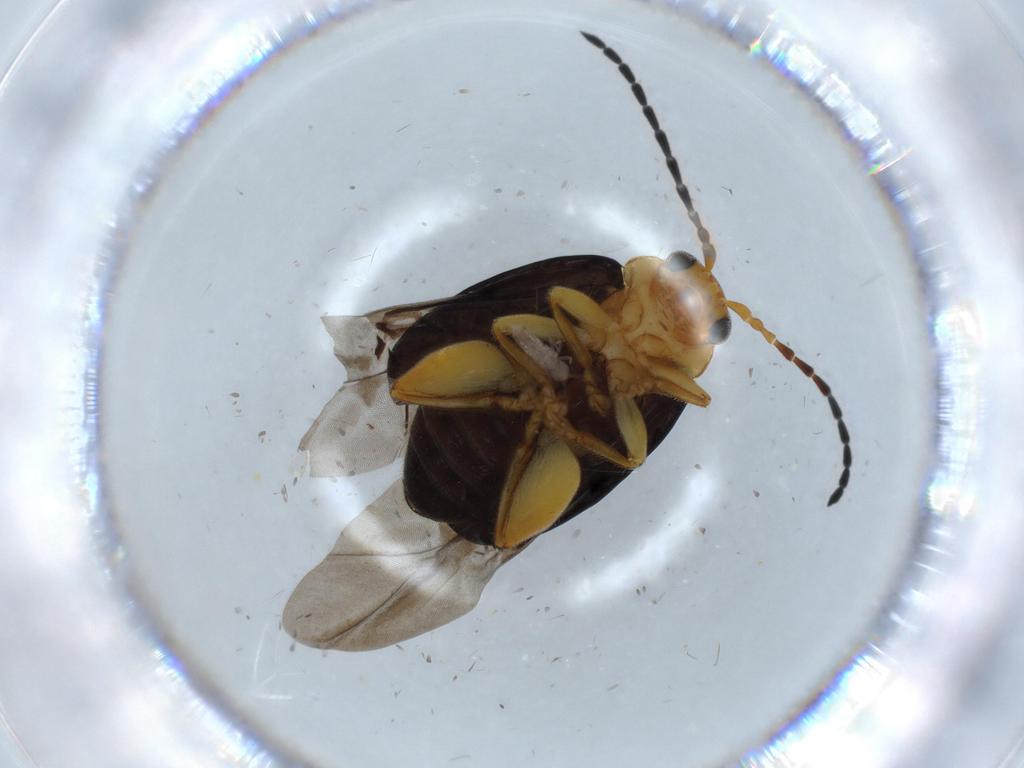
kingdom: Animalia
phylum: Arthropoda
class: Insecta
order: Coleoptera
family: Chrysomelidae
